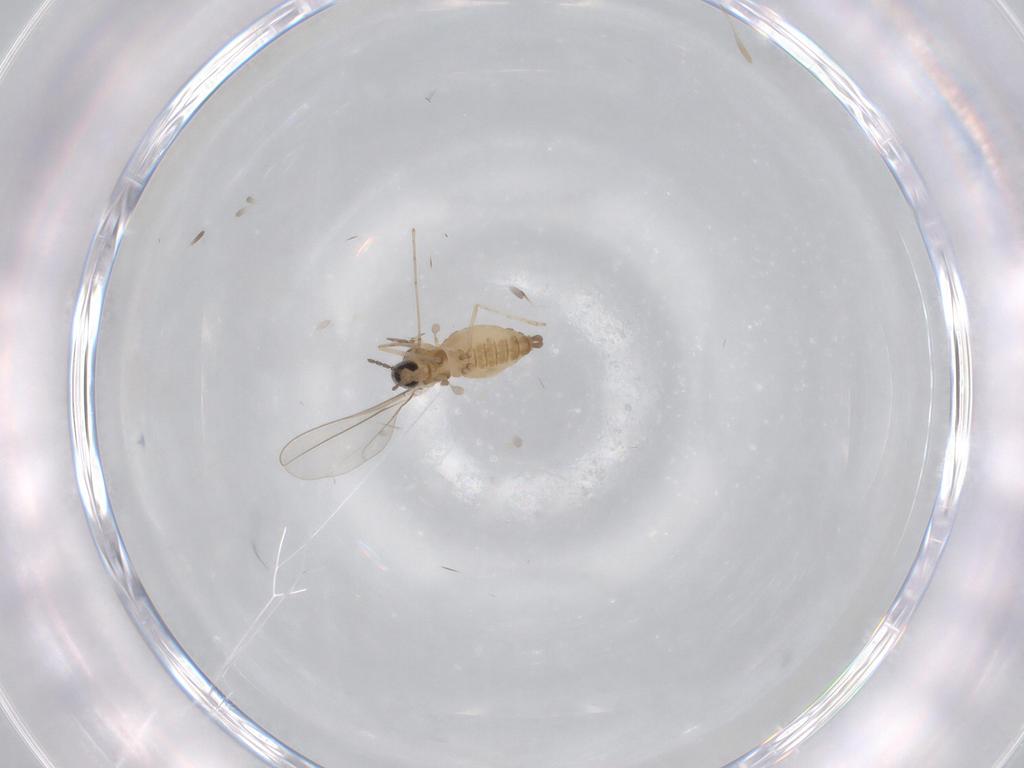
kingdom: Animalia
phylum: Arthropoda
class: Insecta
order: Diptera
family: Cecidomyiidae
